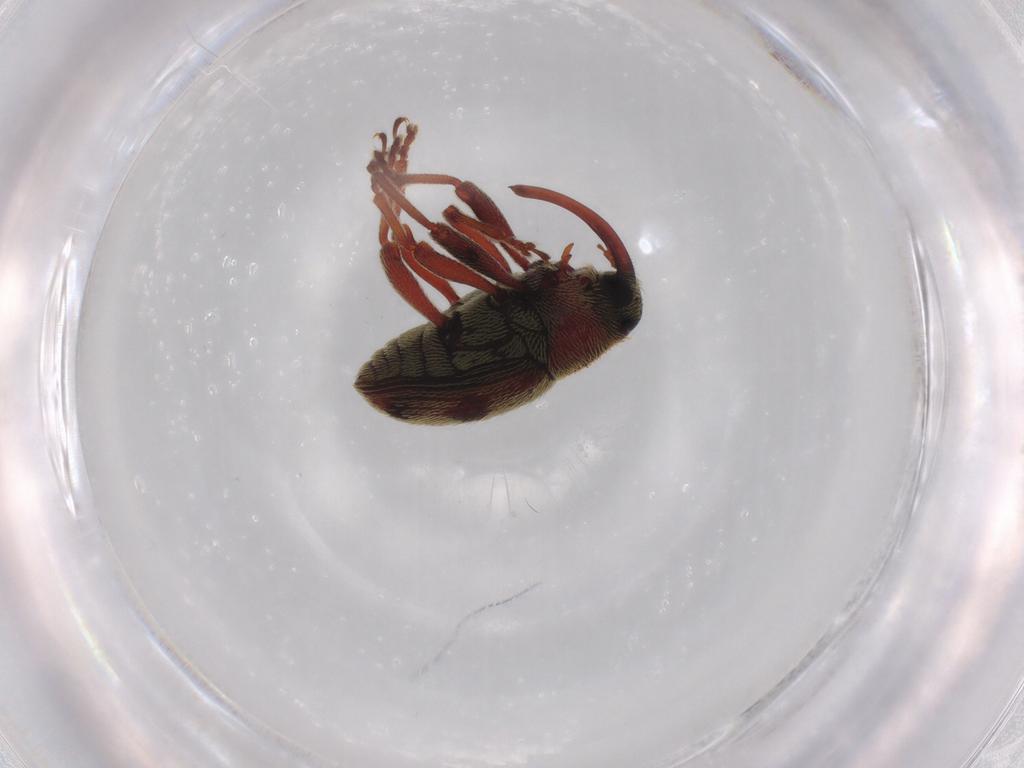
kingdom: Animalia
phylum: Arthropoda
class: Insecta
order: Coleoptera
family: Curculionidae
